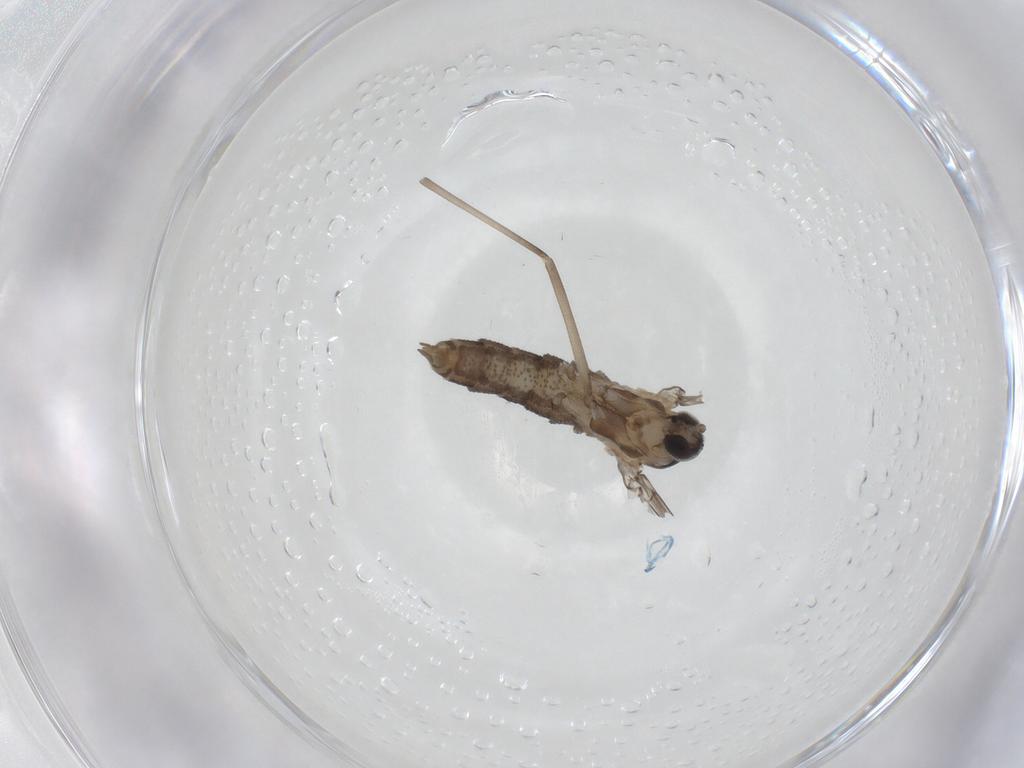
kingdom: Animalia
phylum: Arthropoda
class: Insecta
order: Diptera
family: Cecidomyiidae
